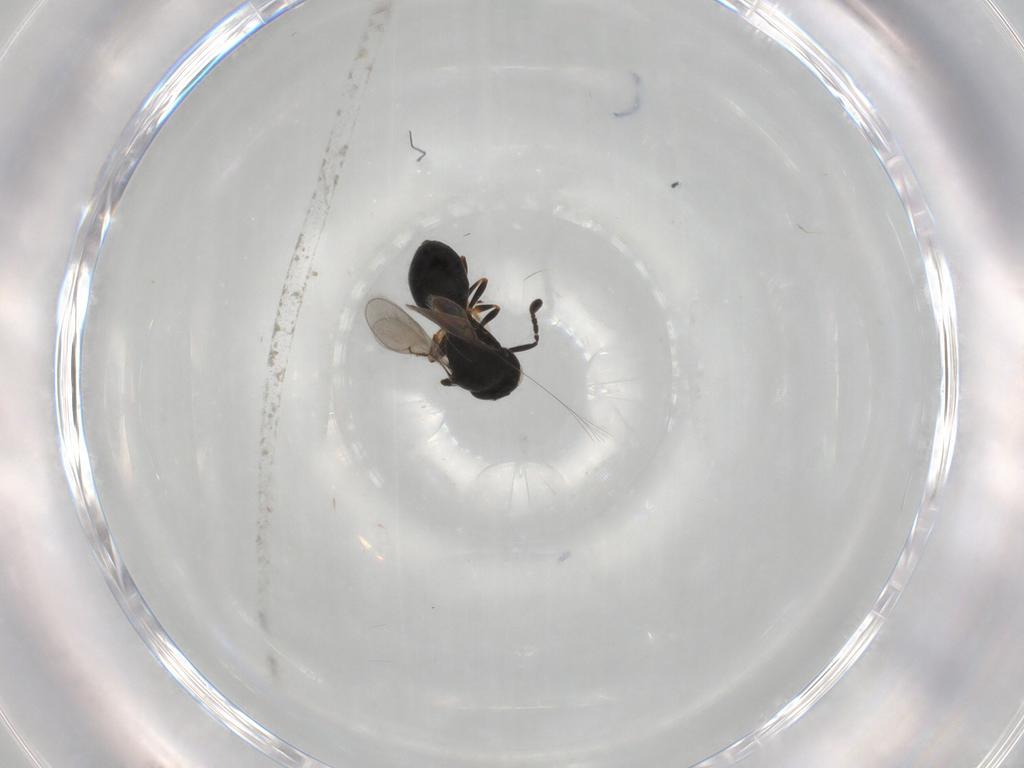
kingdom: Animalia
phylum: Arthropoda
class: Insecta
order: Hymenoptera
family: Scelionidae
